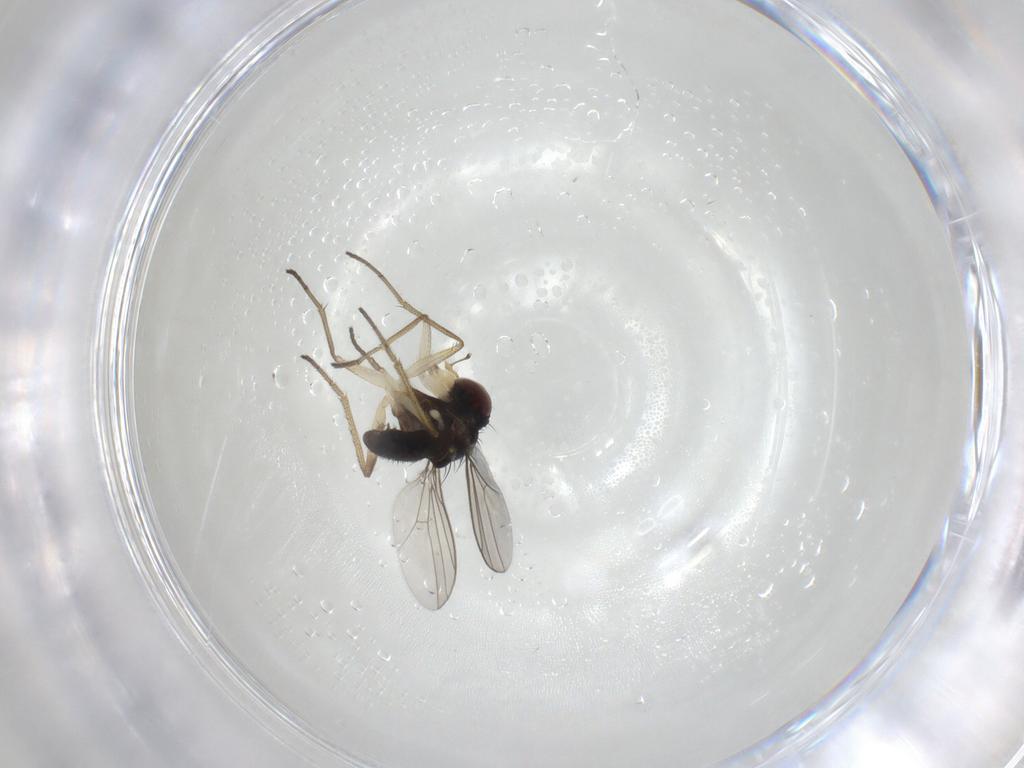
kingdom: Animalia
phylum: Arthropoda
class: Insecta
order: Diptera
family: Dolichopodidae
